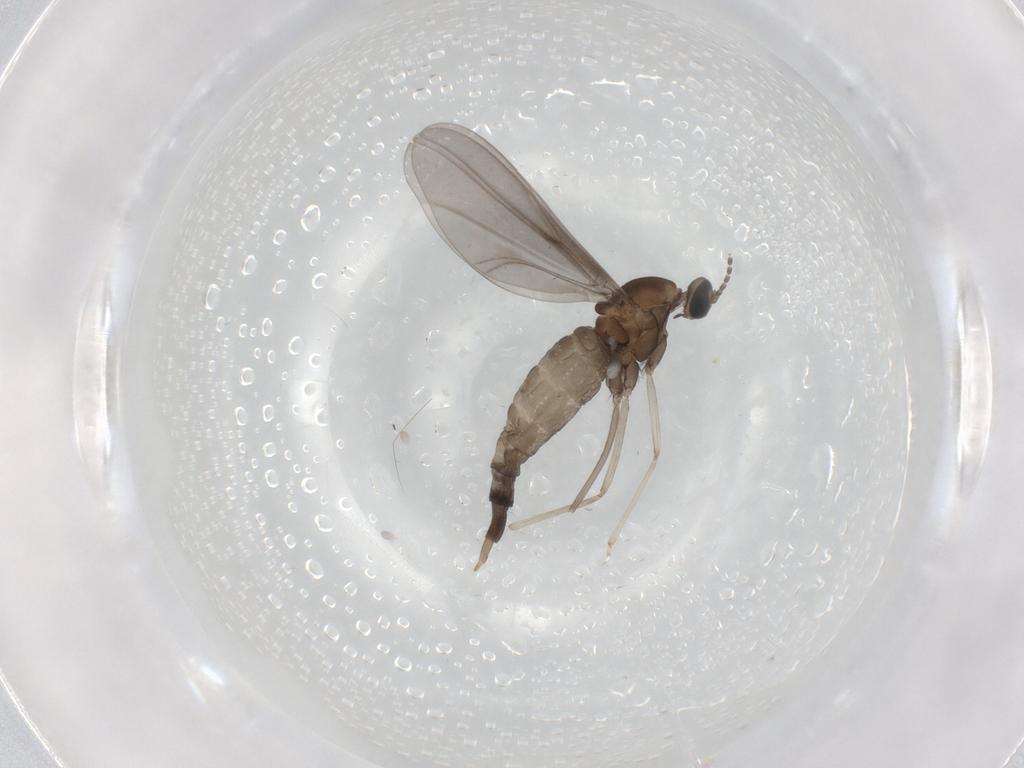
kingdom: Animalia
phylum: Arthropoda
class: Insecta
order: Diptera
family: Cecidomyiidae
